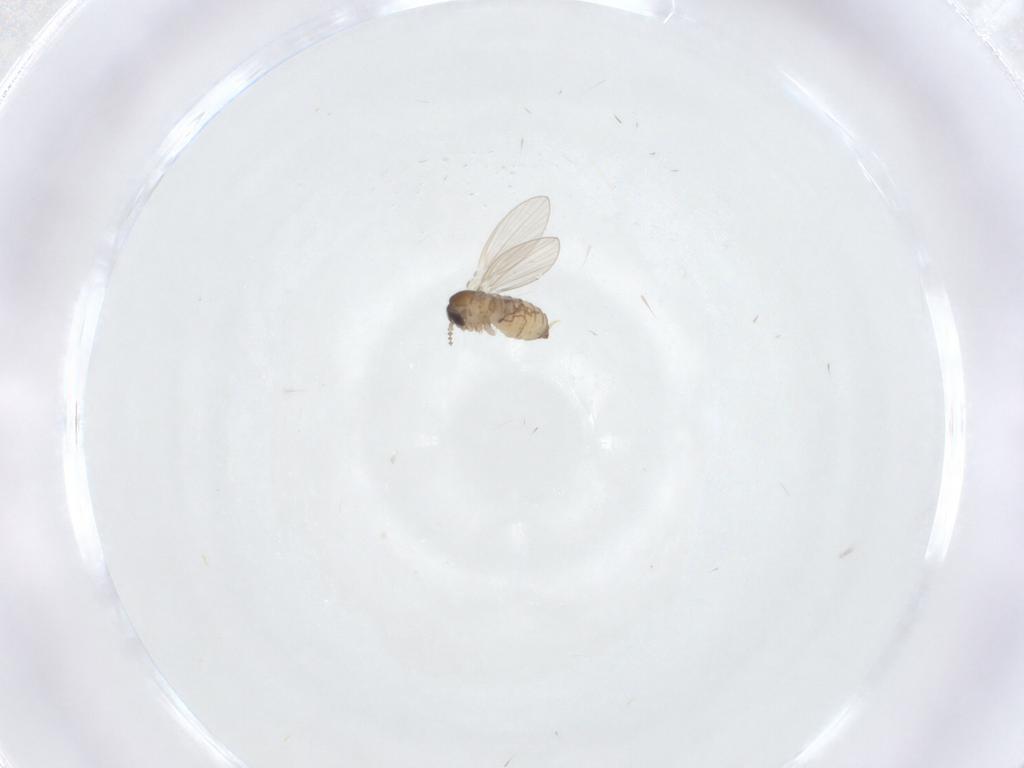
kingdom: Animalia
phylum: Arthropoda
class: Insecta
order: Diptera
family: Psychodidae
